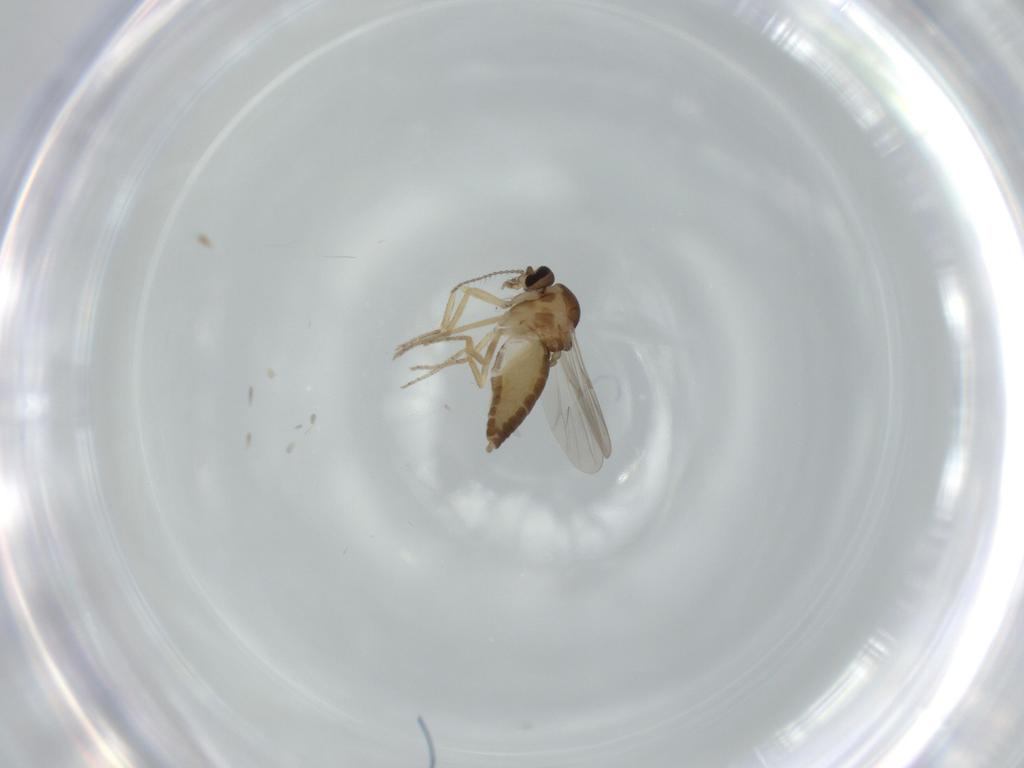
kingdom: Animalia
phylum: Arthropoda
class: Insecta
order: Diptera
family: Ceratopogonidae
